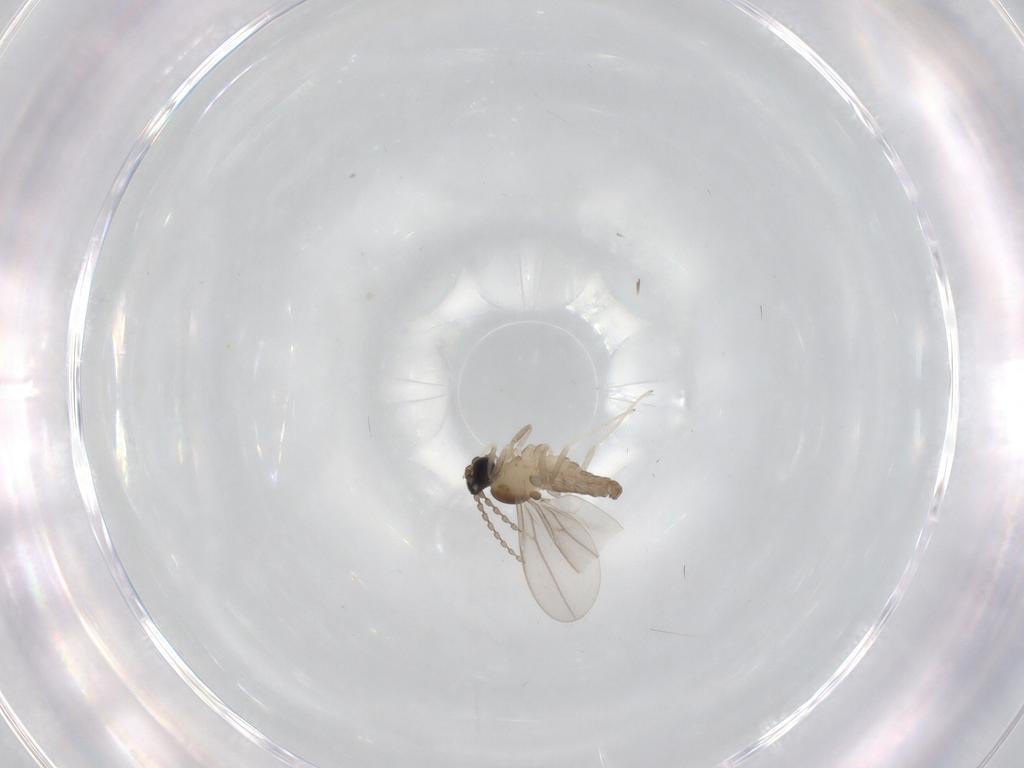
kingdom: Animalia
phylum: Arthropoda
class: Insecta
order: Diptera
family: Cecidomyiidae
